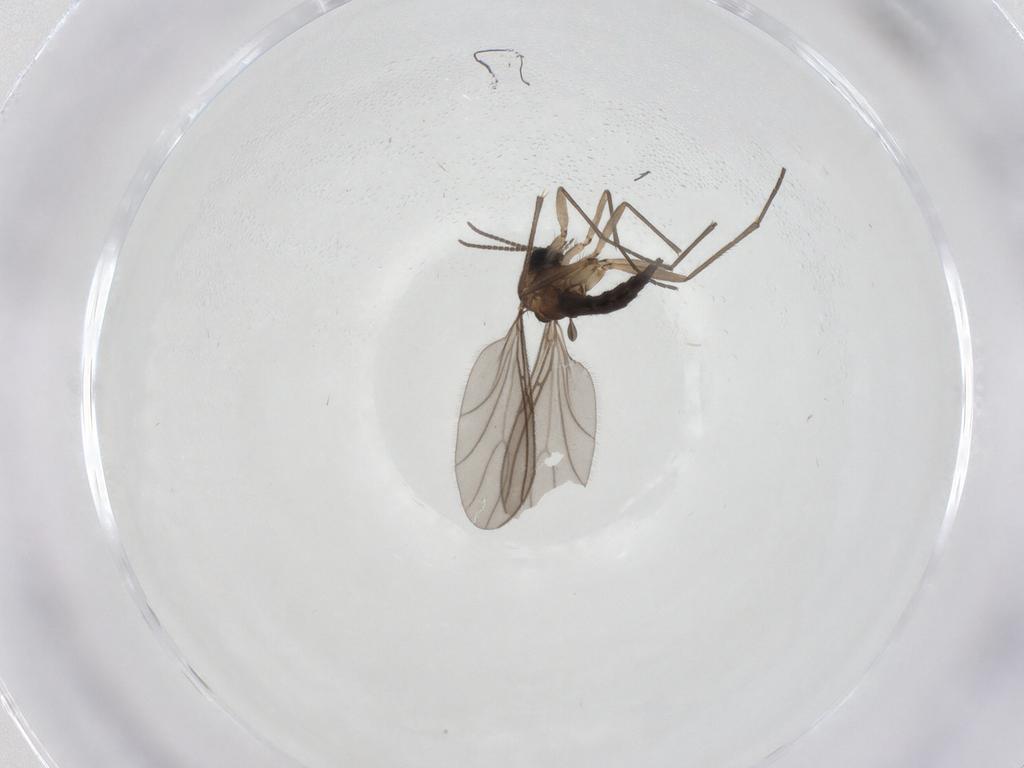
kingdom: Animalia
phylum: Arthropoda
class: Insecta
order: Diptera
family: Sciaridae
